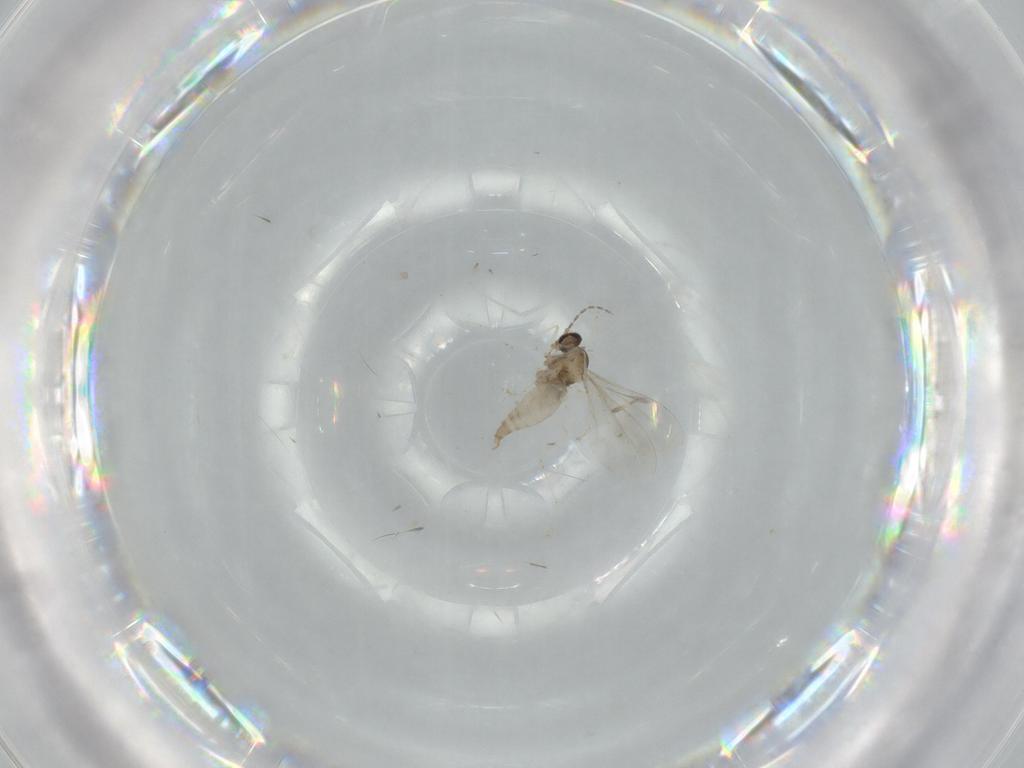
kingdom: Animalia
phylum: Arthropoda
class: Insecta
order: Diptera
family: Cecidomyiidae
